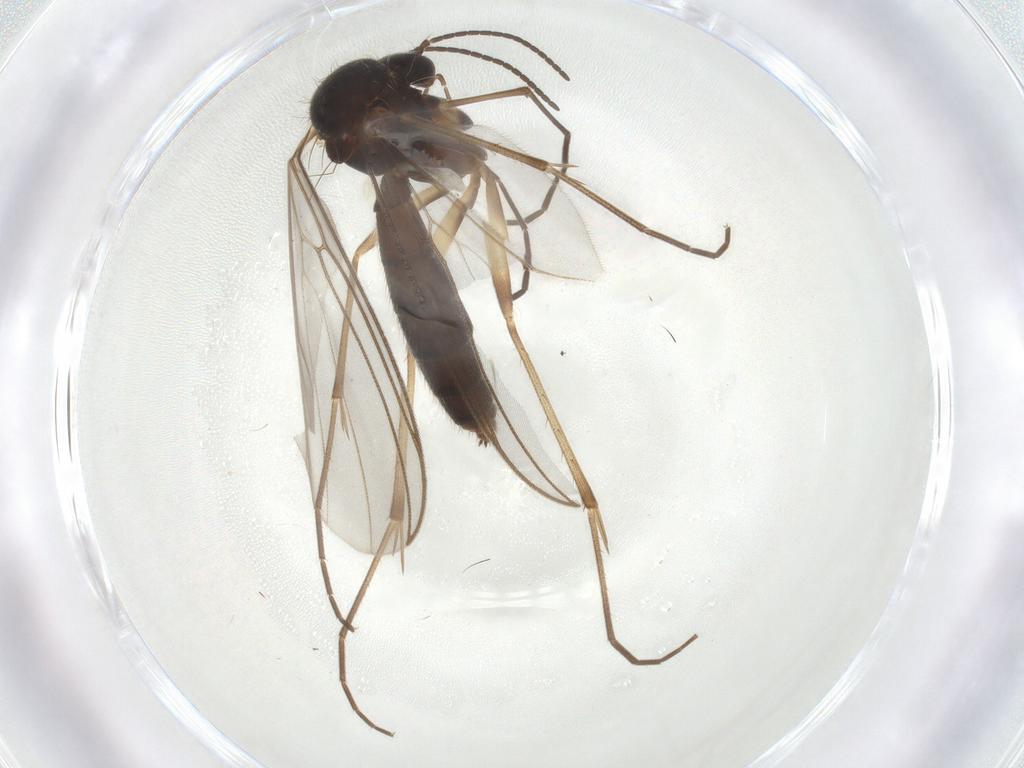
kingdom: Animalia
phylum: Arthropoda
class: Insecta
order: Diptera
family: Mycetophilidae
